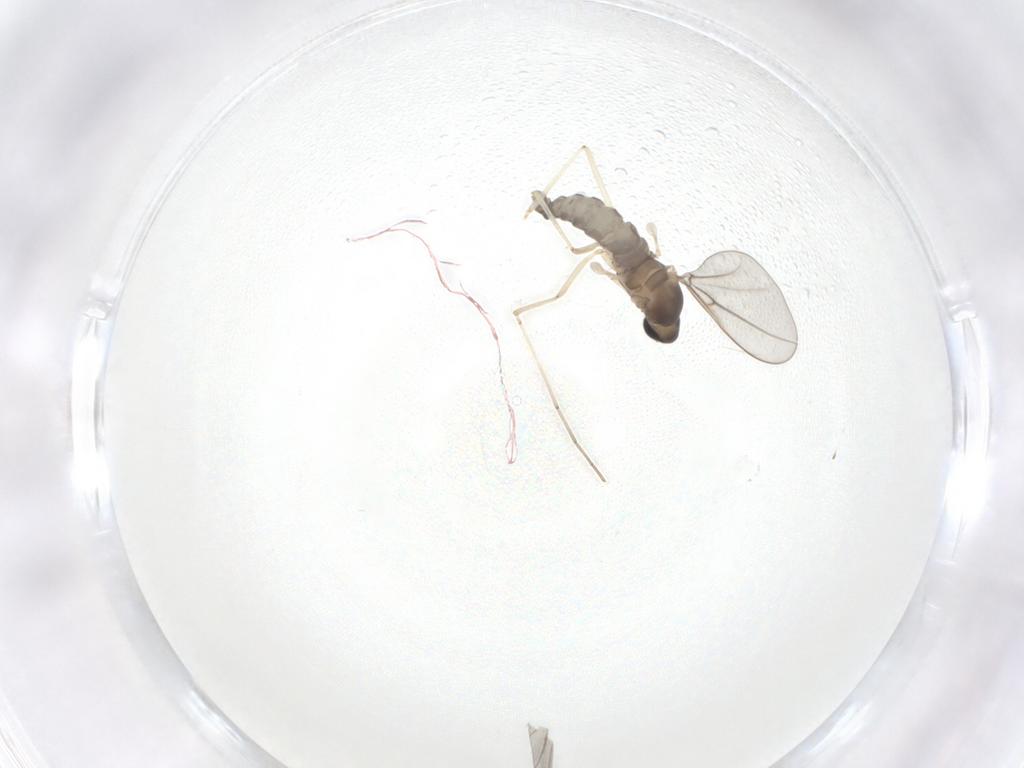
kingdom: Animalia
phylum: Arthropoda
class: Insecta
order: Diptera
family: Cecidomyiidae
